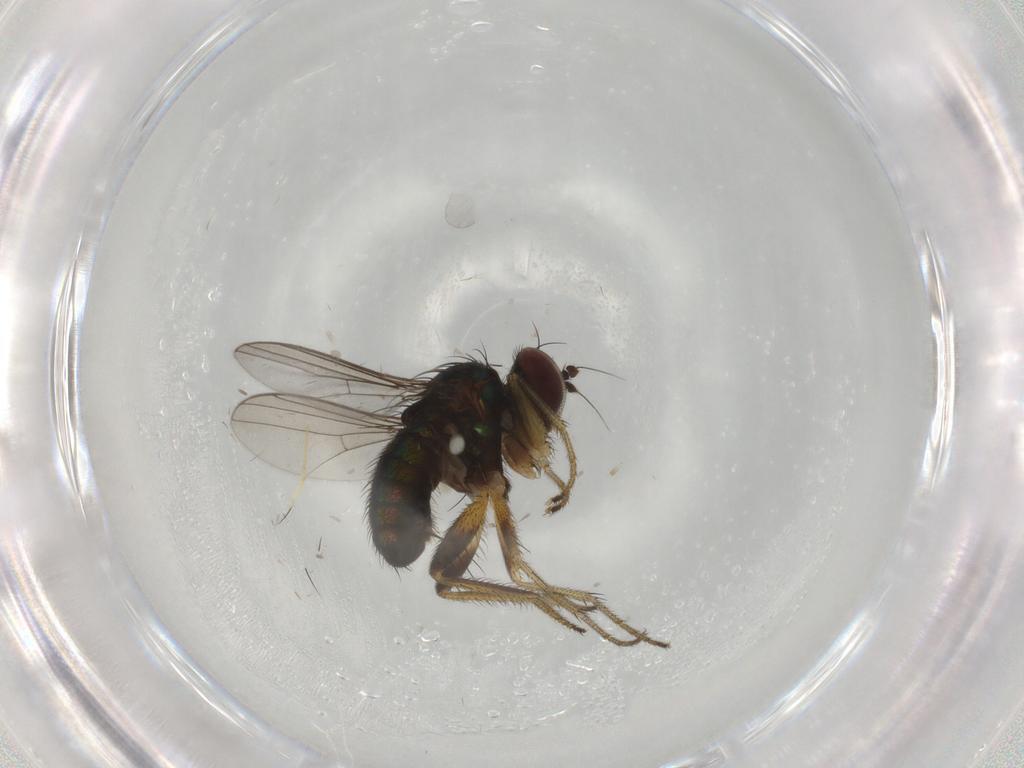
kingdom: Animalia
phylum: Arthropoda
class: Insecta
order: Diptera
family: Dolichopodidae
